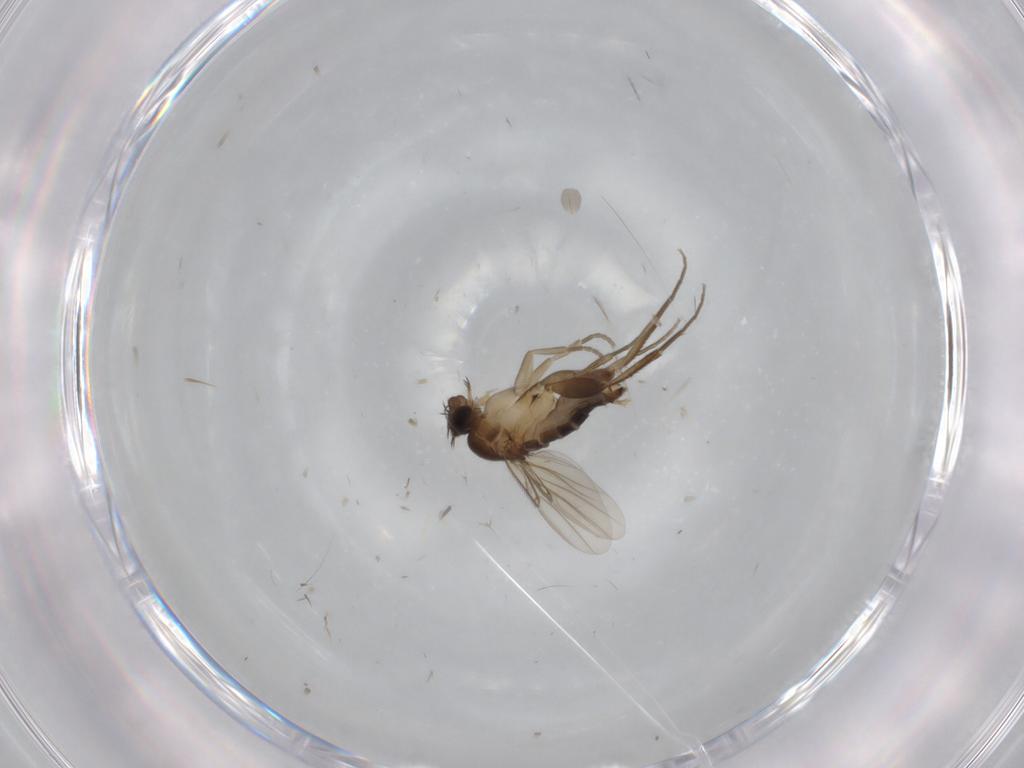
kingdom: Animalia
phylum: Arthropoda
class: Insecta
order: Diptera
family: Phoridae
